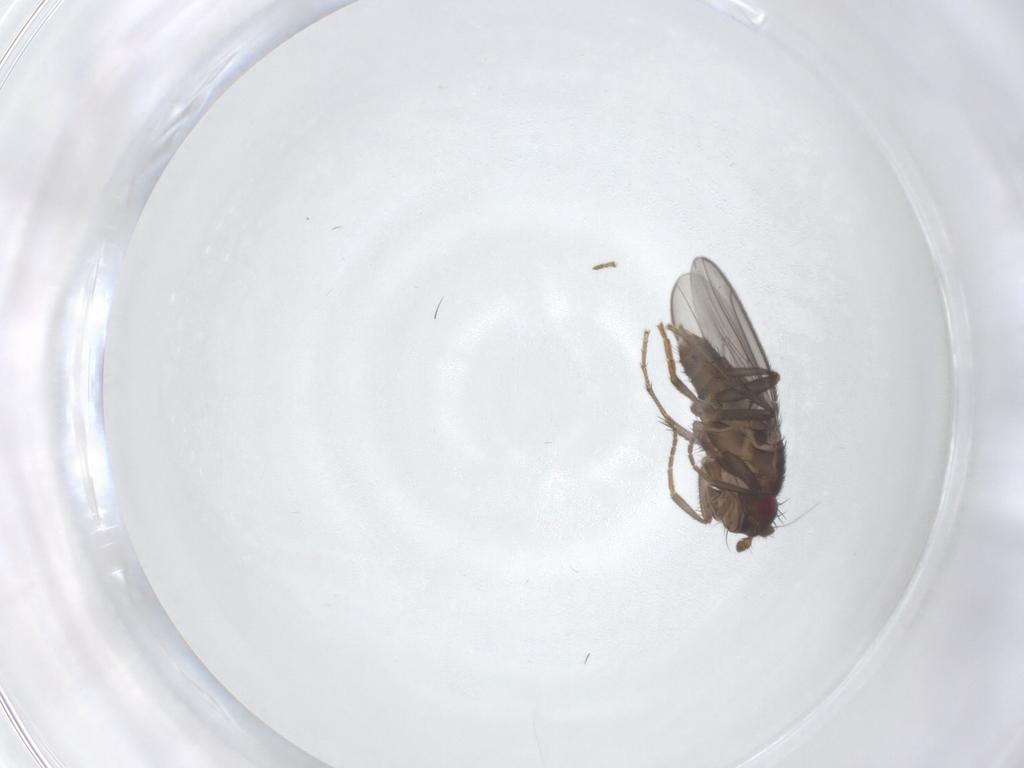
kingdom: Animalia
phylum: Arthropoda
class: Insecta
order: Diptera
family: Sphaeroceridae
